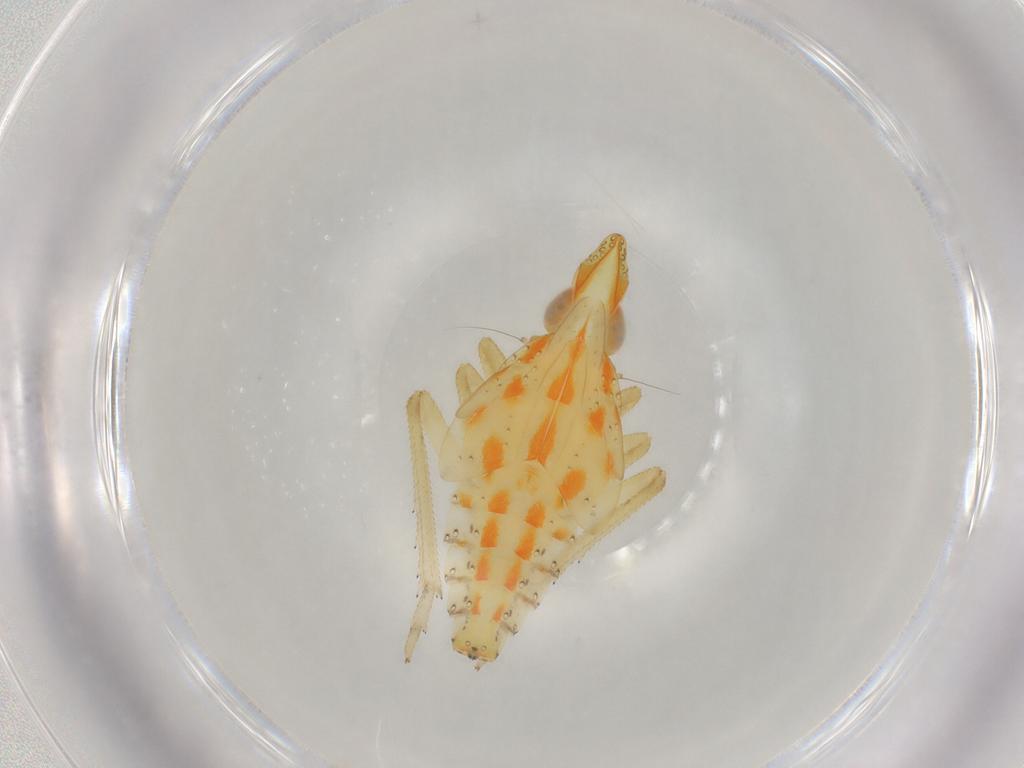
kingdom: Animalia
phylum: Arthropoda
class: Insecta
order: Hemiptera
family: Tropiduchidae
